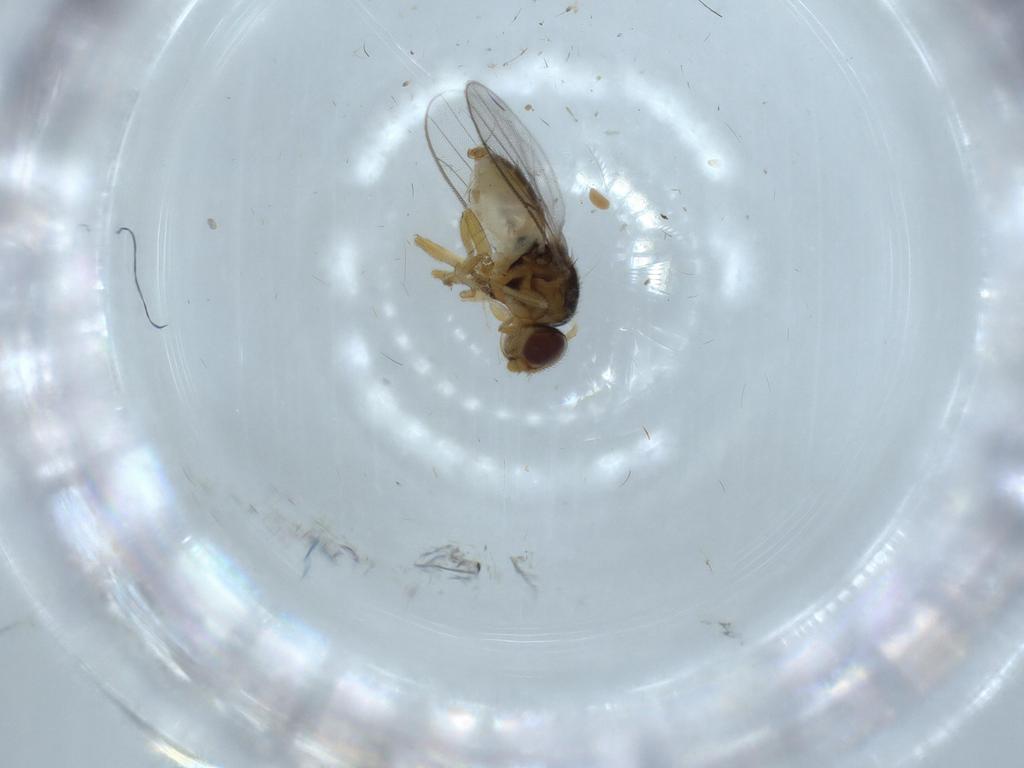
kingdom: Animalia
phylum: Arthropoda
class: Insecta
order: Diptera
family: Chloropidae
